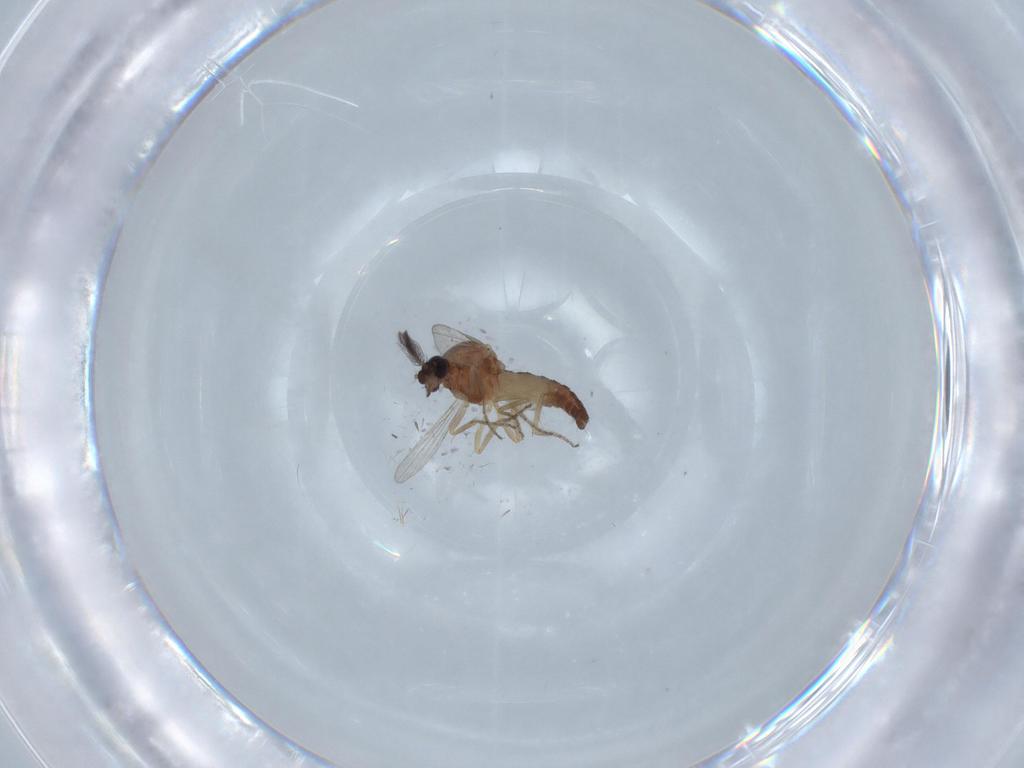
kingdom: Animalia
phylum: Arthropoda
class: Insecta
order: Diptera
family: Ceratopogonidae
